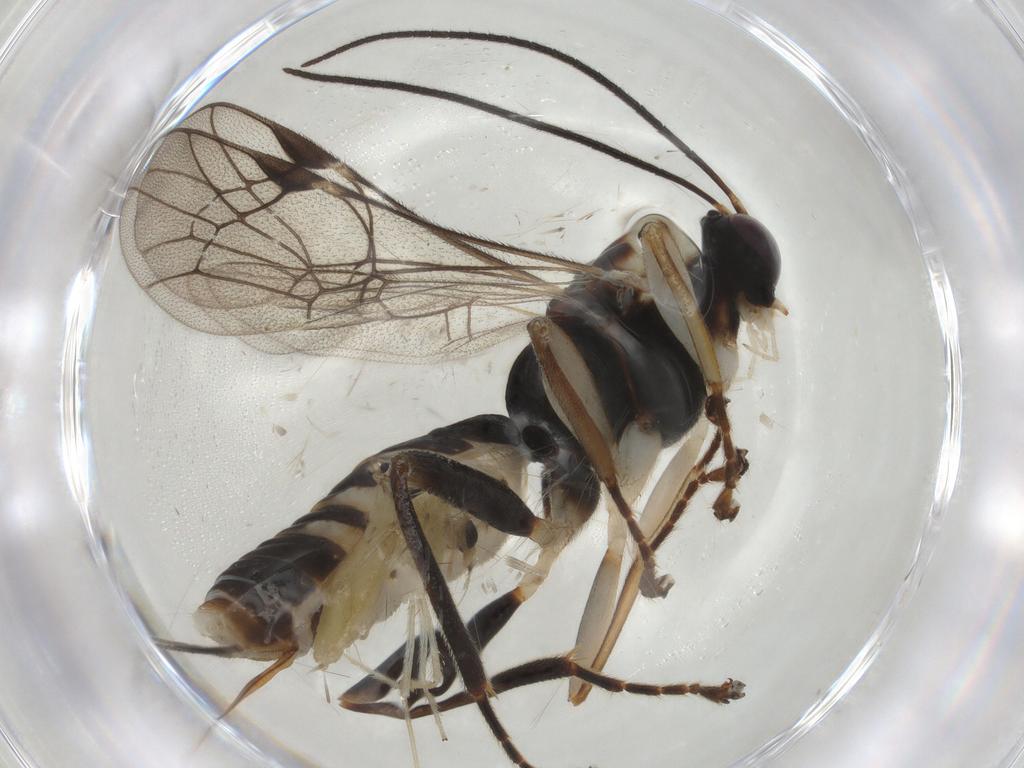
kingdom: Animalia
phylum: Arthropoda
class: Insecta
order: Hymenoptera
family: Ichneumonidae
